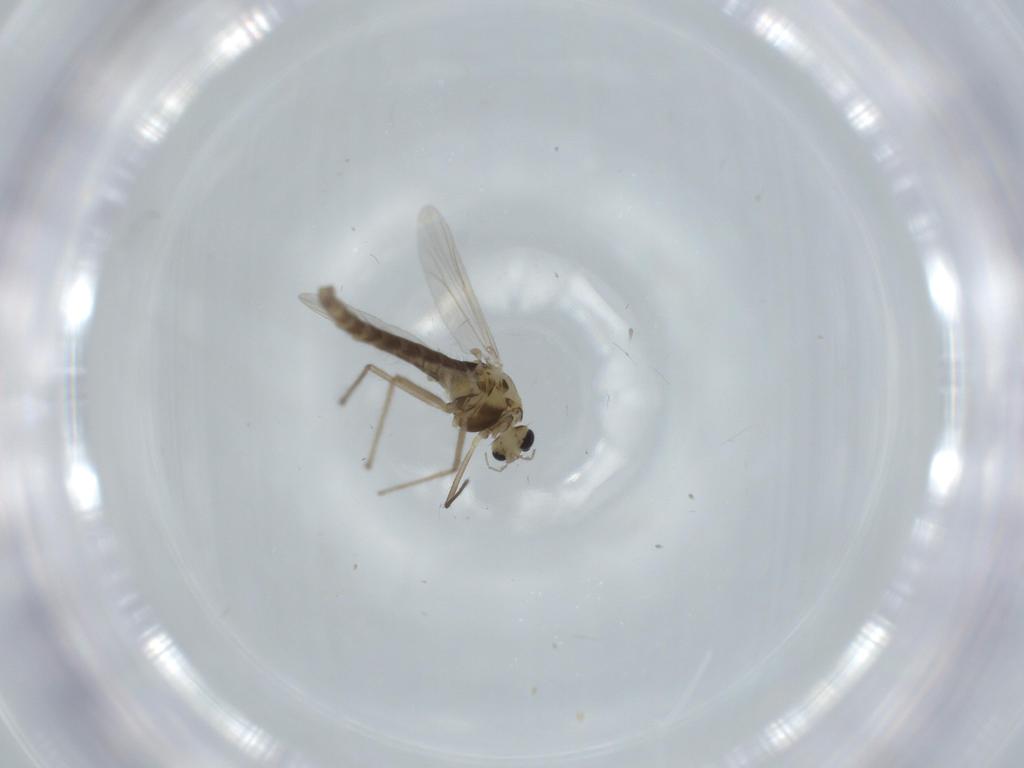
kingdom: Animalia
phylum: Arthropoda
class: Insecta
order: Diptera
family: Chironomidae
